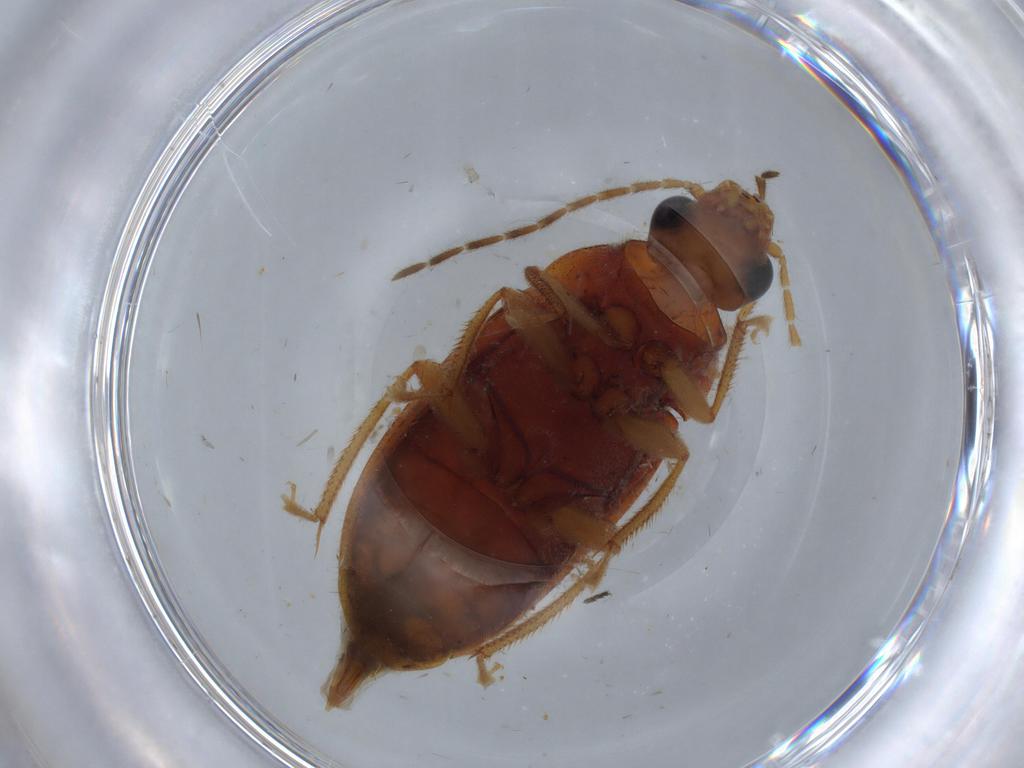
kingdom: Animalia
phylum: Arthropoda
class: Insecta
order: Coleoptera
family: Ptilodactylidae
